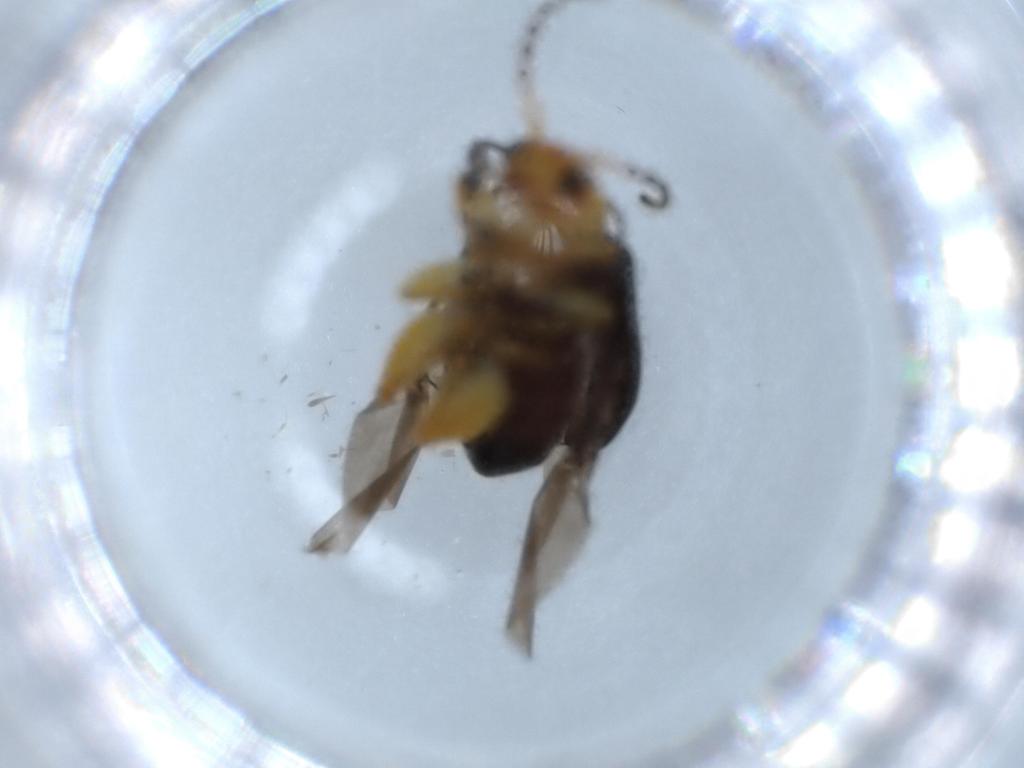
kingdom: Animalia
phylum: Arthropoda
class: Insecta
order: Coleoptera
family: Chrysomelidae
